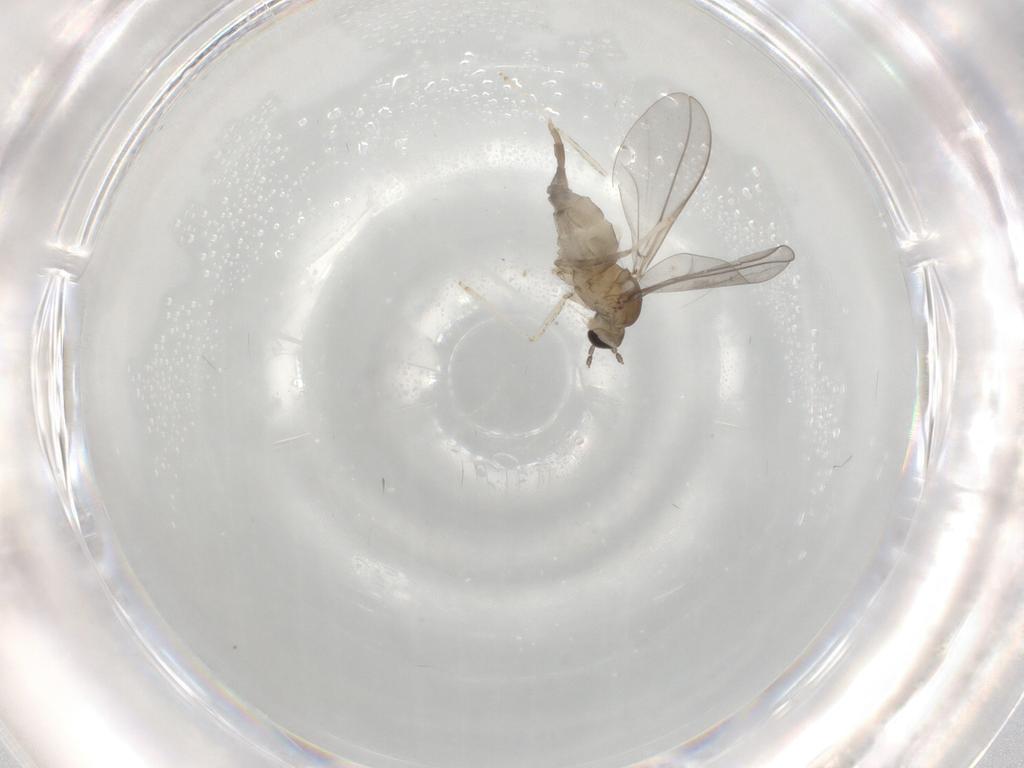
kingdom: Animalia
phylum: Arthropoda
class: Insecta
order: Diptera
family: Cecidomyiidae
